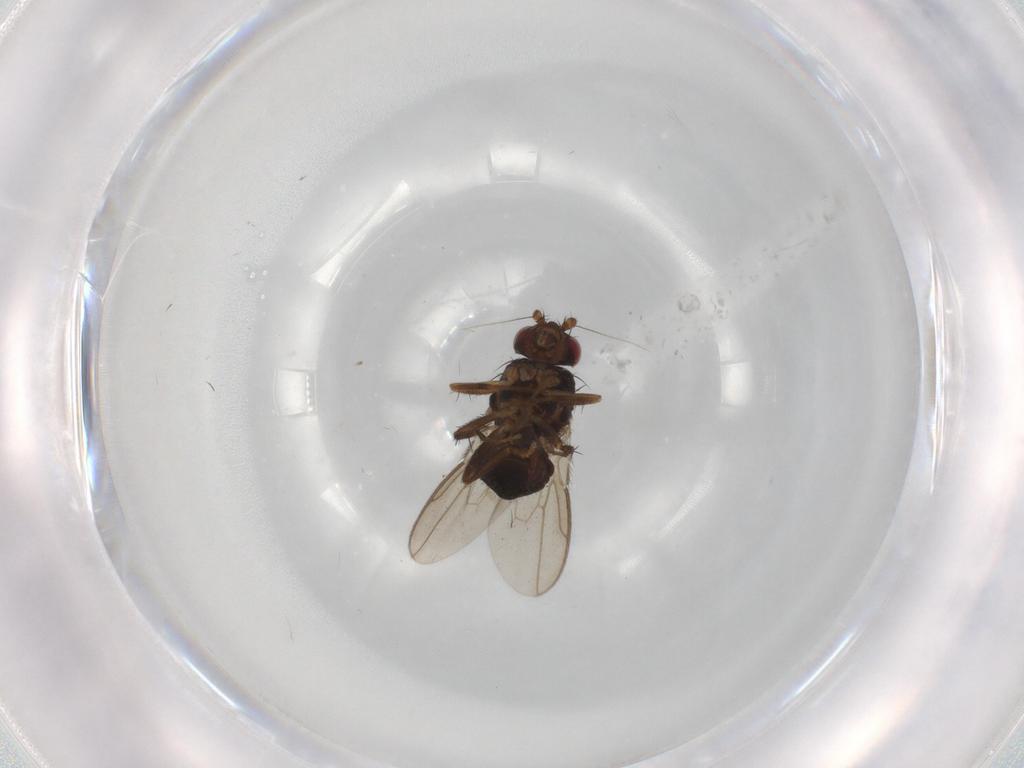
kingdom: Animalia
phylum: Arthropoda
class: Insecta
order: Diptera
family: Sphaeroceridae
